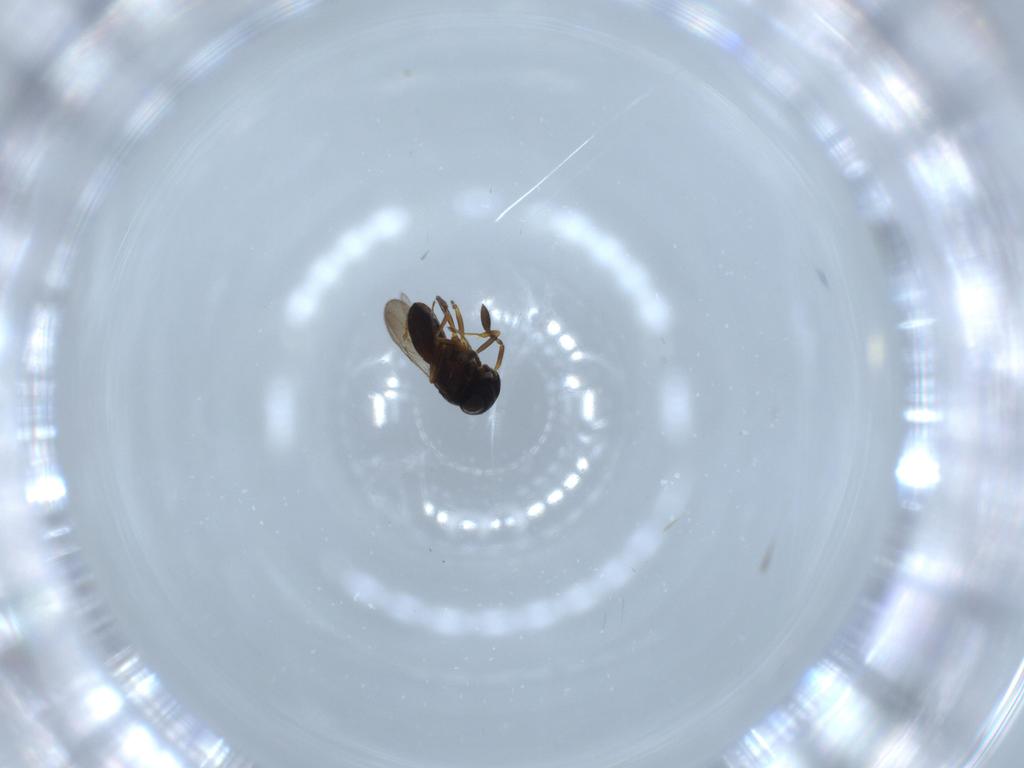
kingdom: Animalia
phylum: Arthropoda
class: Insecta
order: Hymenoptera
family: Scelionidae
